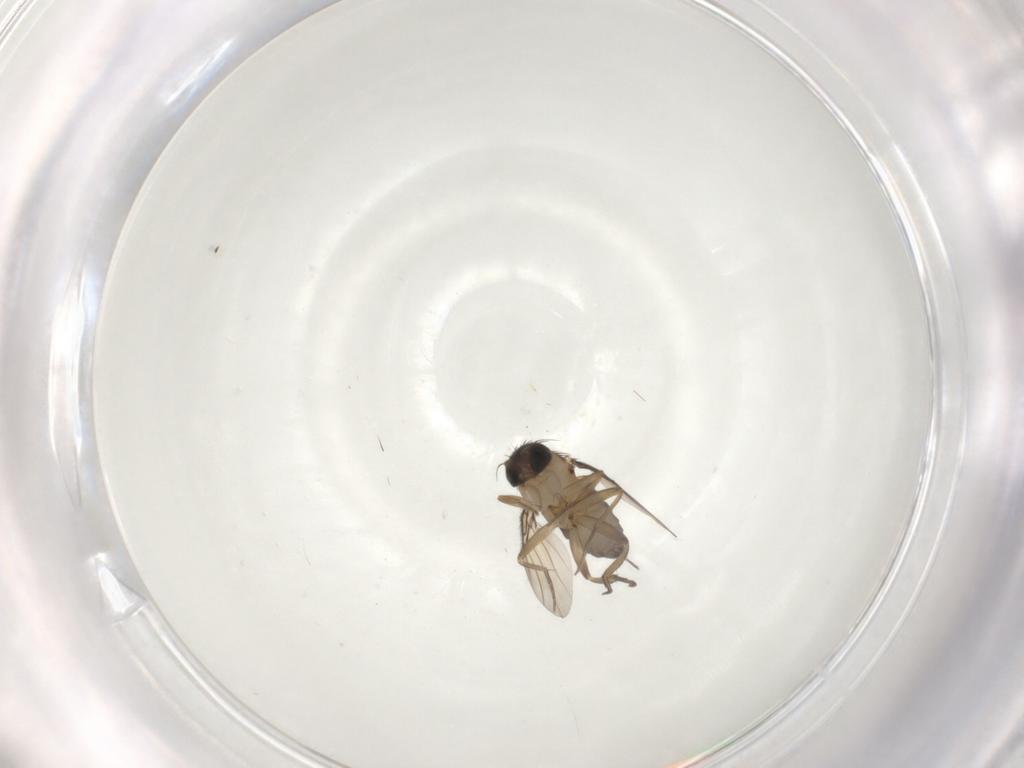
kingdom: Animalia
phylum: Arthropoda
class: Insecta
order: Diptera
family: Phoridae
